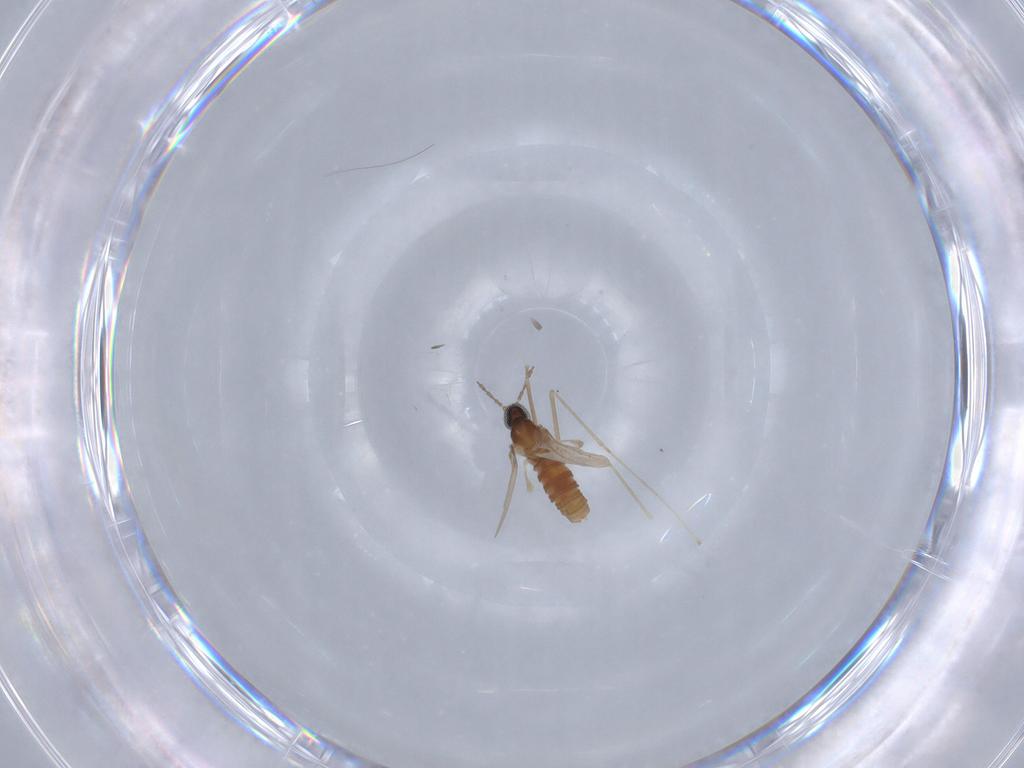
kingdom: Animalia
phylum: Arthropoda
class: Insecta
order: Diptera
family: Cecidomyiidae
